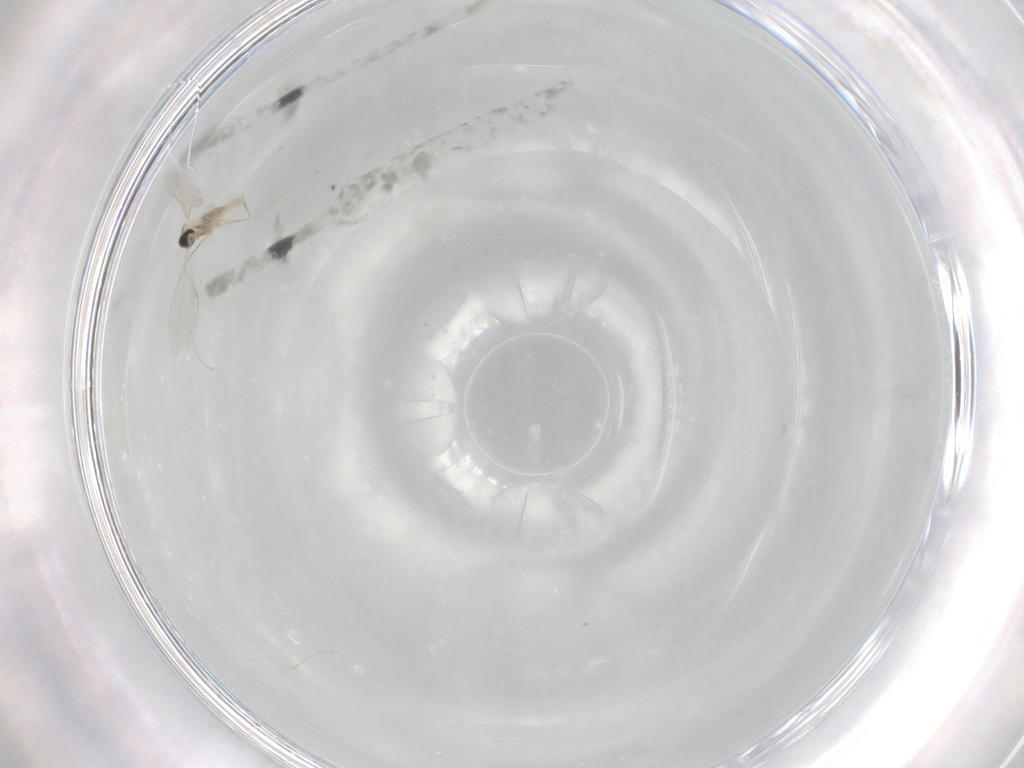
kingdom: Animalia
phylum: Arthropoda
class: Insecta
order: Diptera
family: Cecidomyiidae
